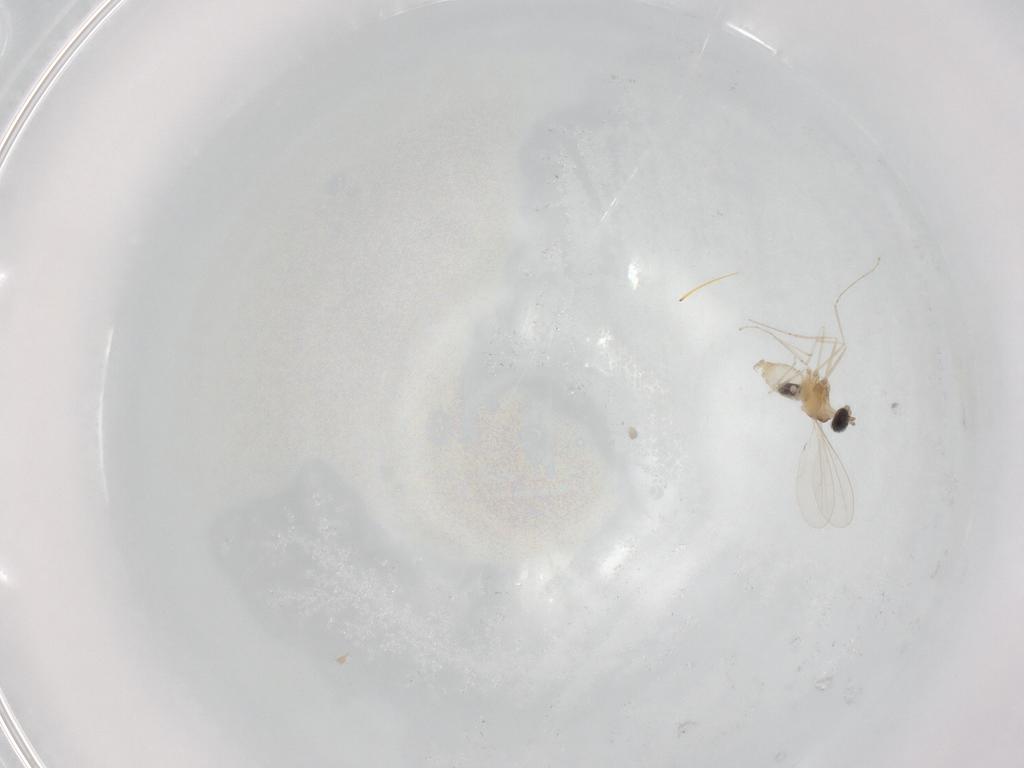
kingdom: Animalia
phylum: Arthropoda
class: Insecta
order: Diptera
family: Cecidomyiidae
